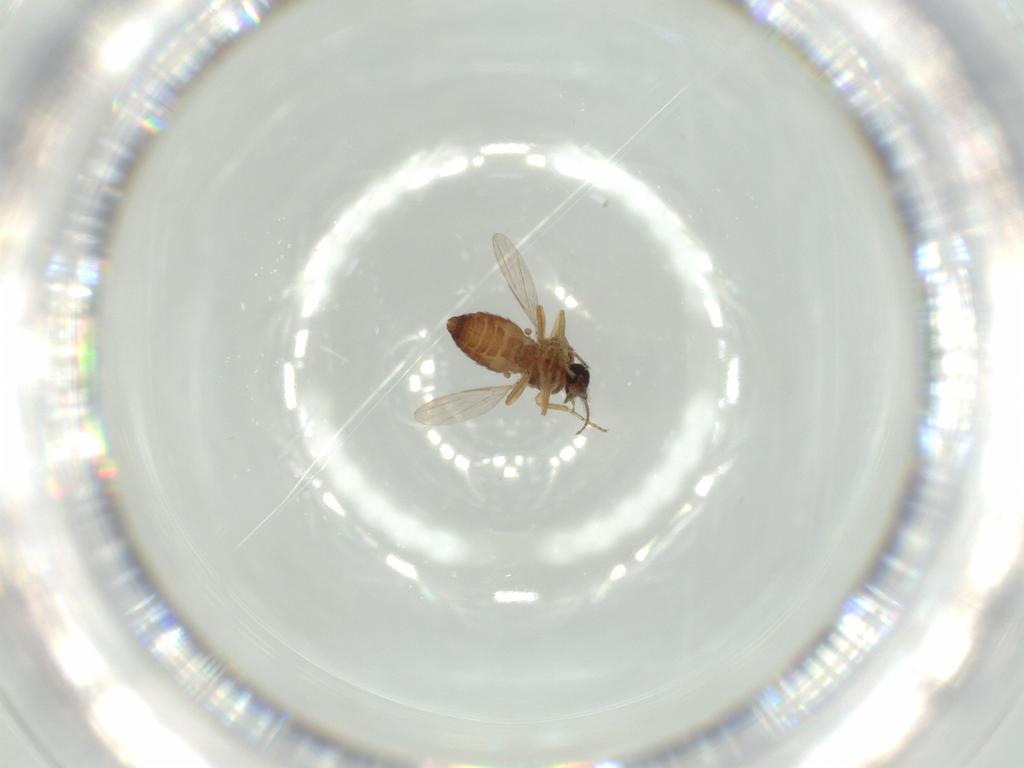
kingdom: Animalia
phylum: Arthropoda
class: Insecta
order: Diptera
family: Ceratopogonidae
